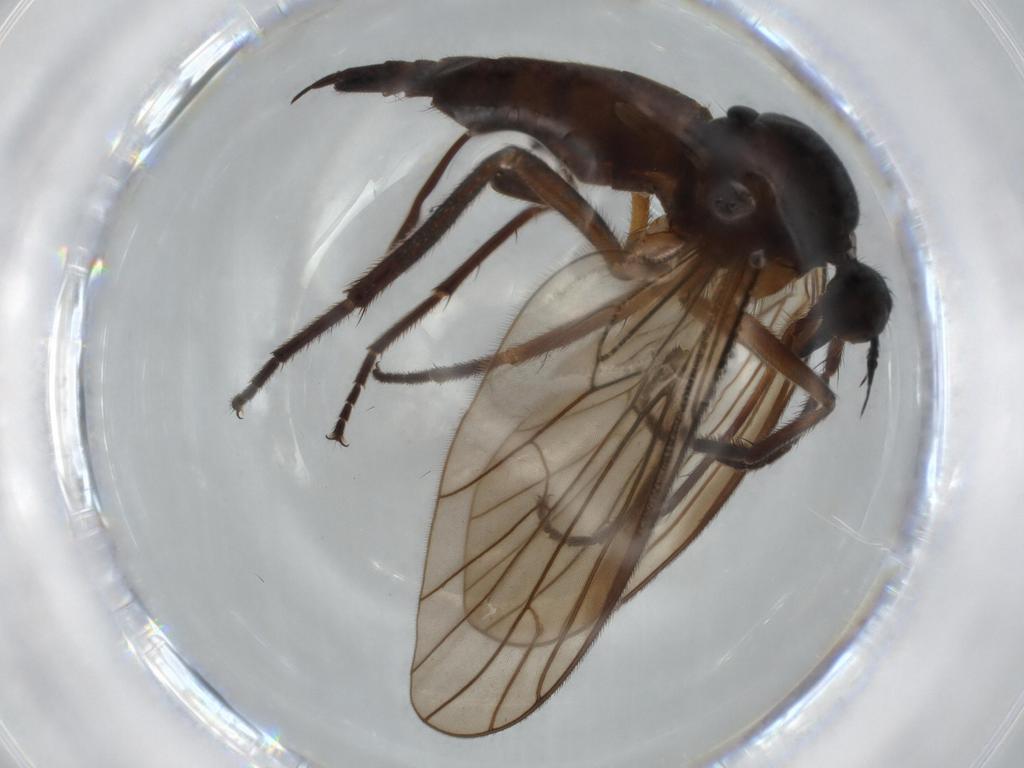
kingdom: Animalia
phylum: Arthropoda
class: Insecta
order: Diptera
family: Empididae
